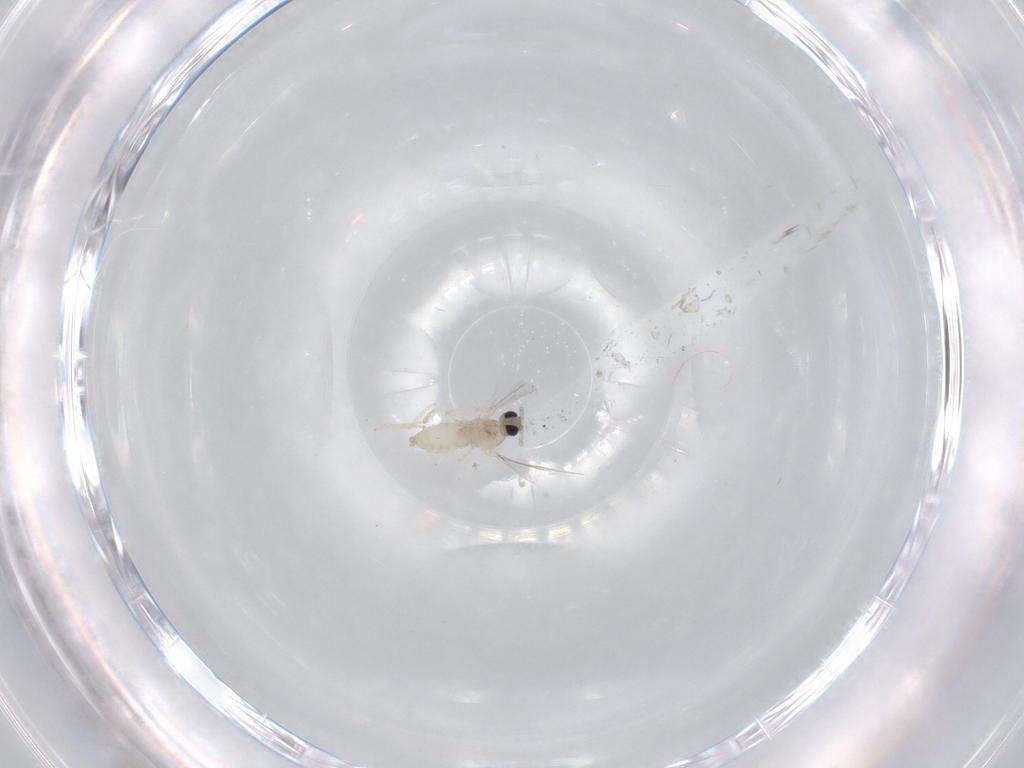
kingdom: Animalia
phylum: Arthropoda
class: Insecta
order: Diptera
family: Cecidomyiidae
